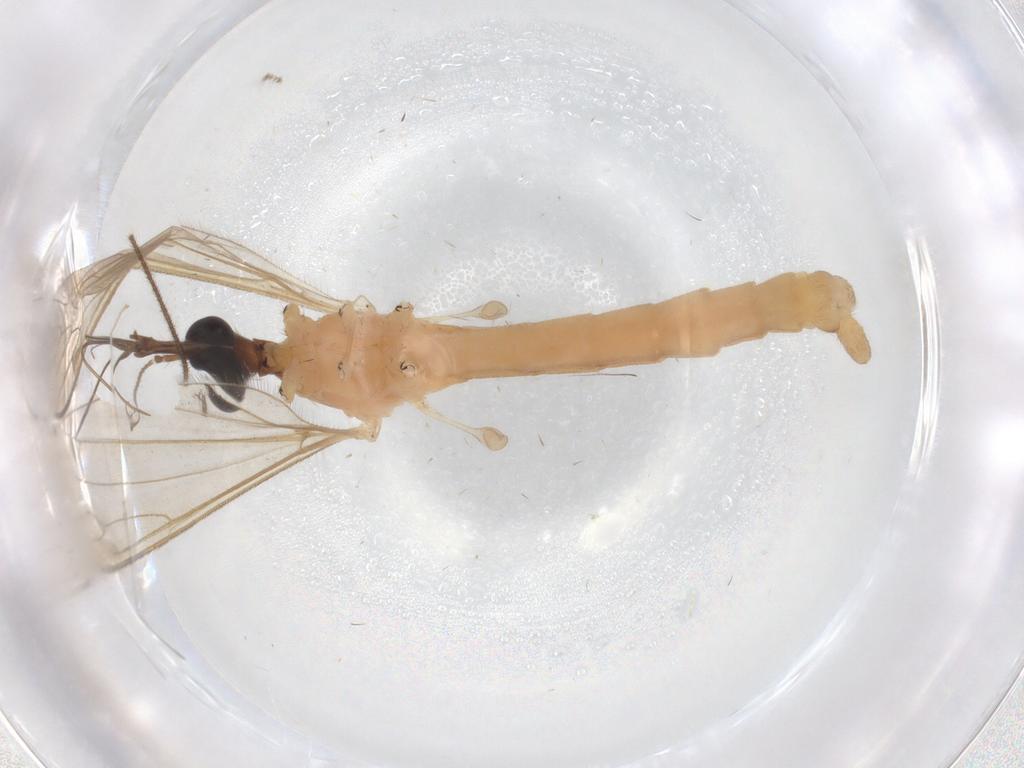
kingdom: Animalia
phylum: Arthropoda
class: Insecta
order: Diptera
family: Limoniidae
